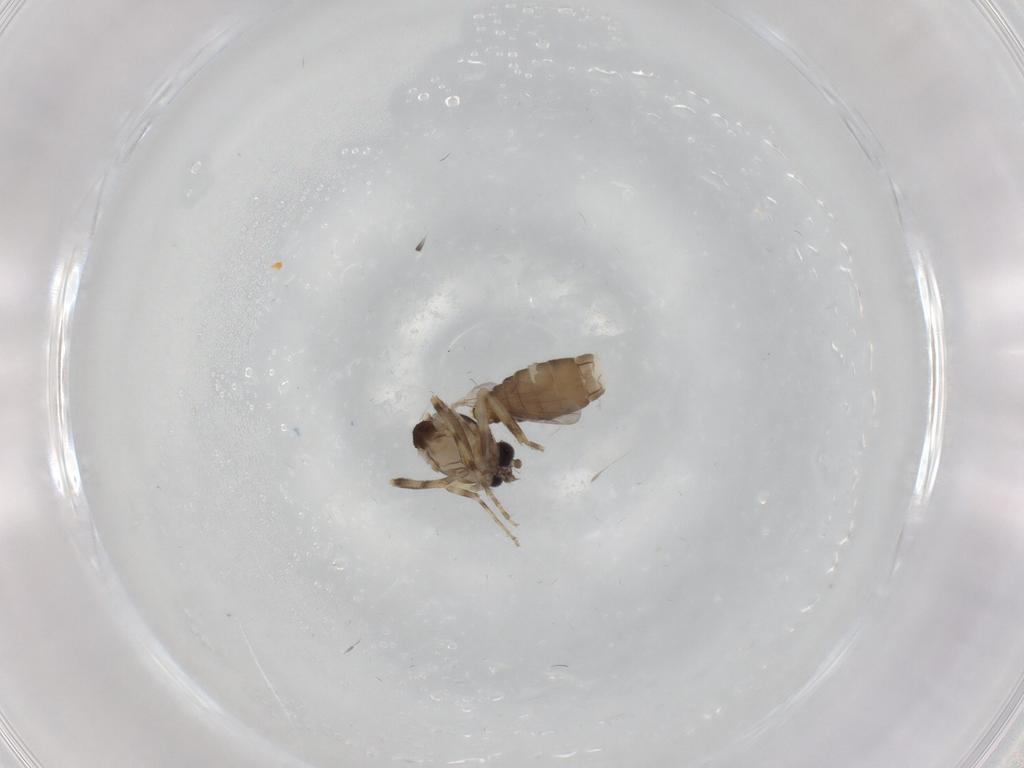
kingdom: Animalia
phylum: Arthropoda
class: Insecta
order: Diptera
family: Ceratopogonidae
